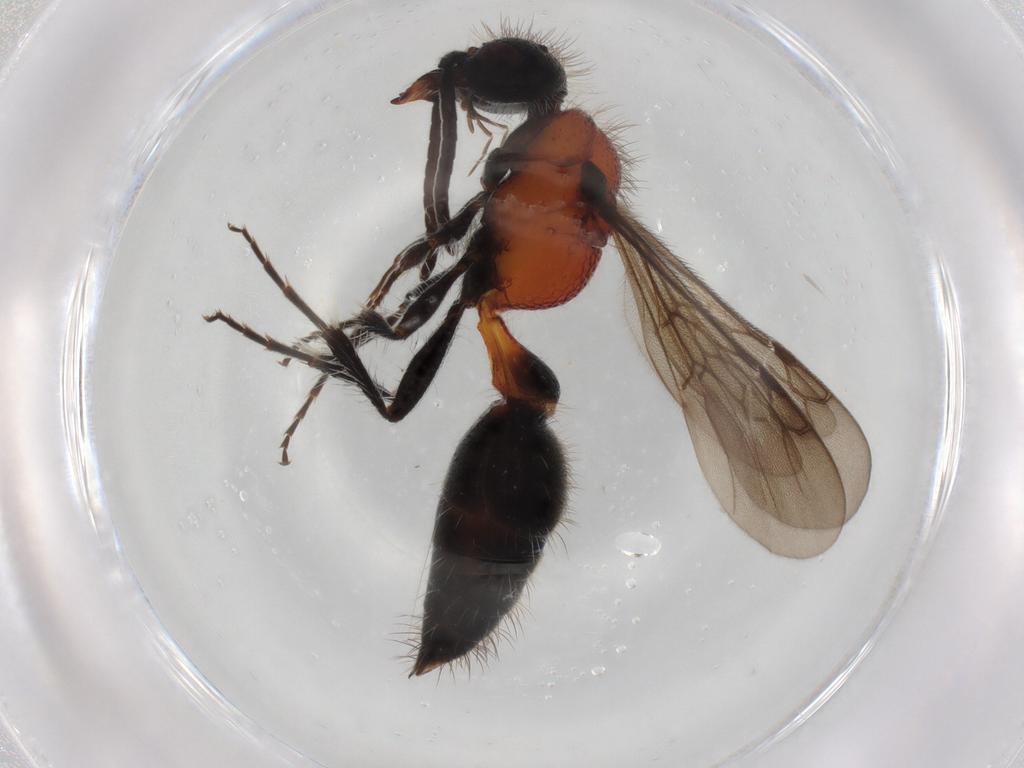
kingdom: Animalia
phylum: Arthropoda
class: Insecta
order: Hymenoptera
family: Mutillidae
